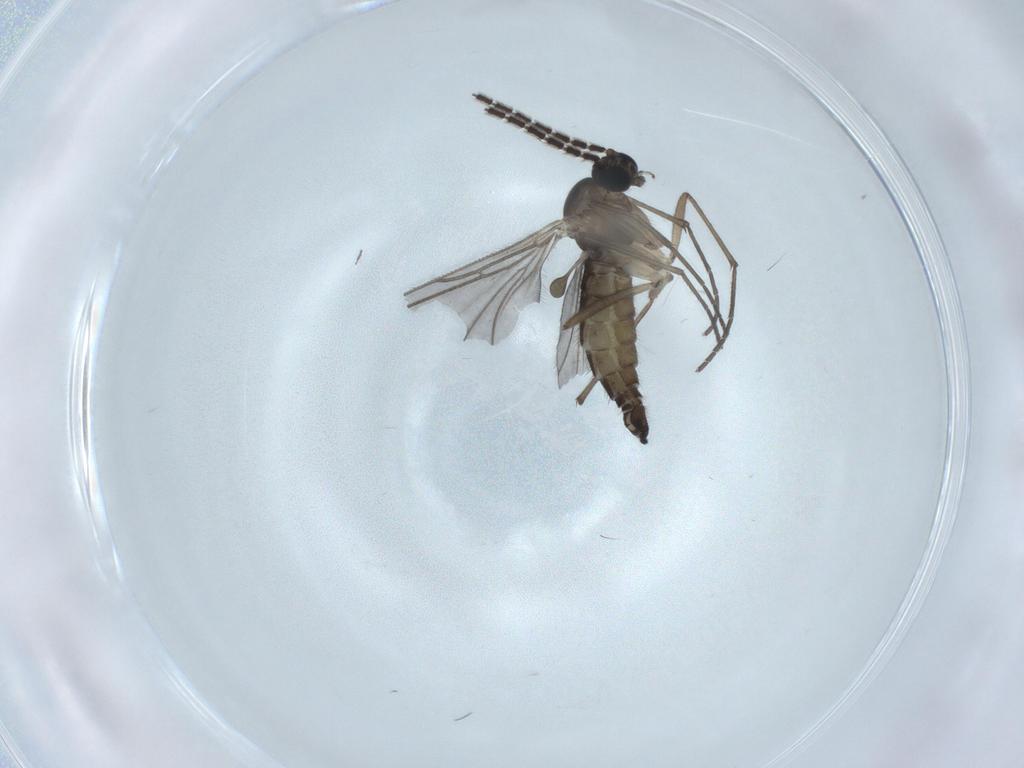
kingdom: Animalia
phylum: Arthropoda
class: Insecta
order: Diptera
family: Sciaridae
